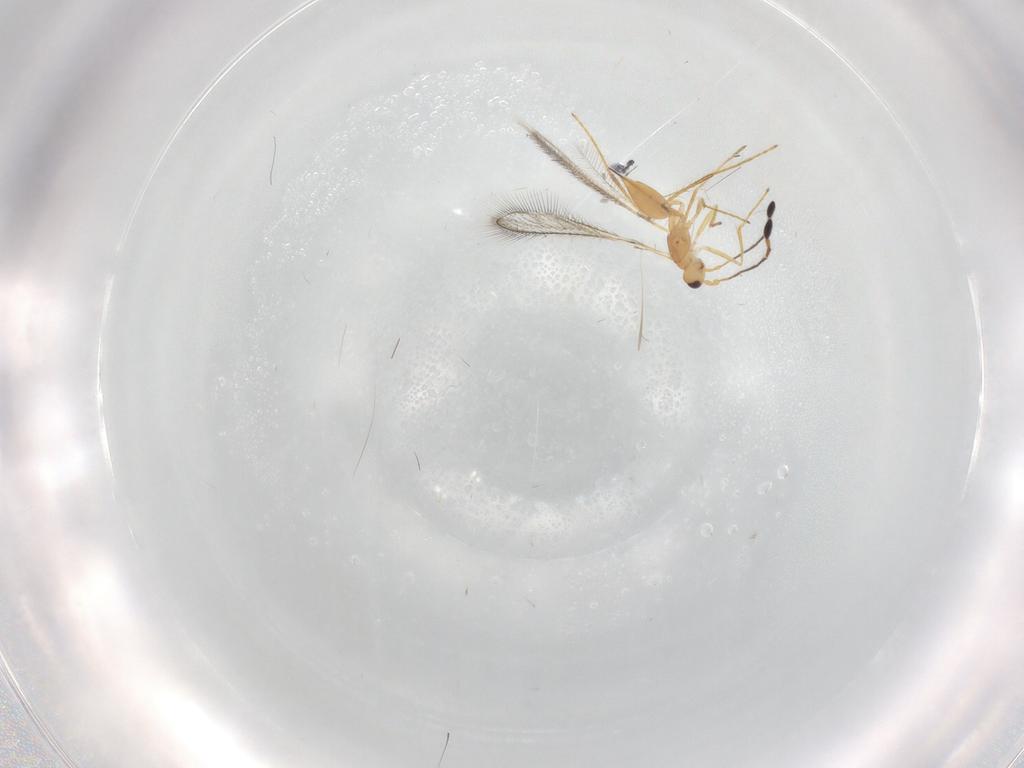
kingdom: Animalia
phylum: Arthropoda
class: Insecta
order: Hymenoptera
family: Mymaridae
